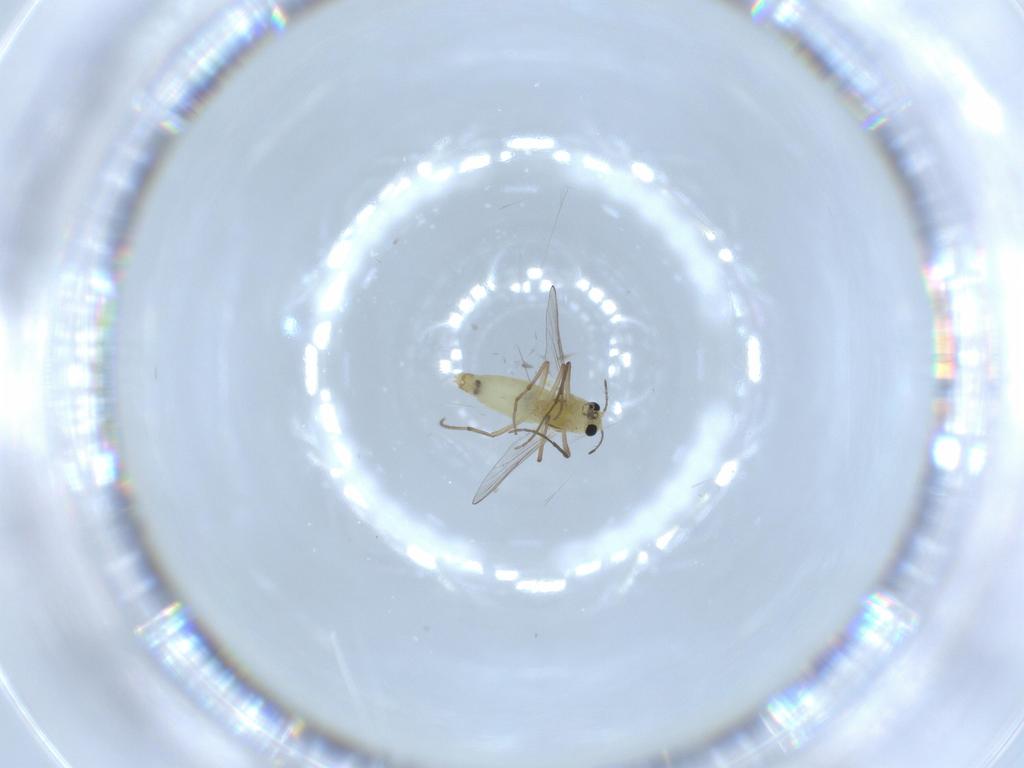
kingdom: Animalia
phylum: Arthropoda
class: Insecta
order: Diptera
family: Chironomidae
